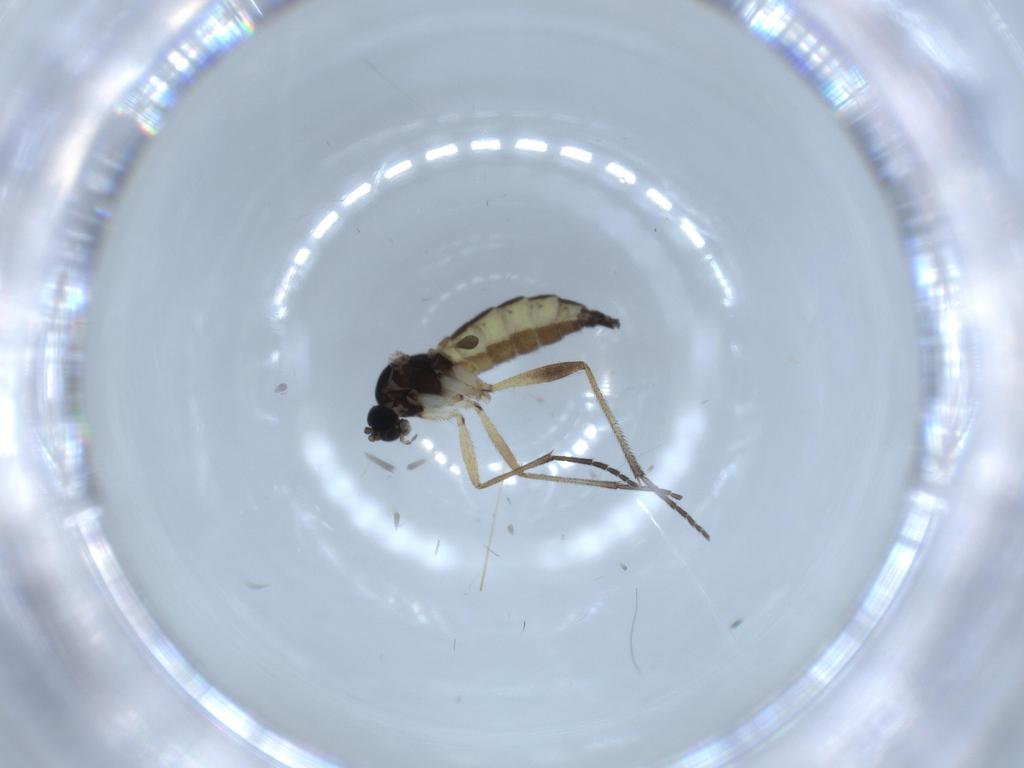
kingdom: Animalia
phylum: Arthropoda
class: Insecta
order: Diptera
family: Sciaridae
